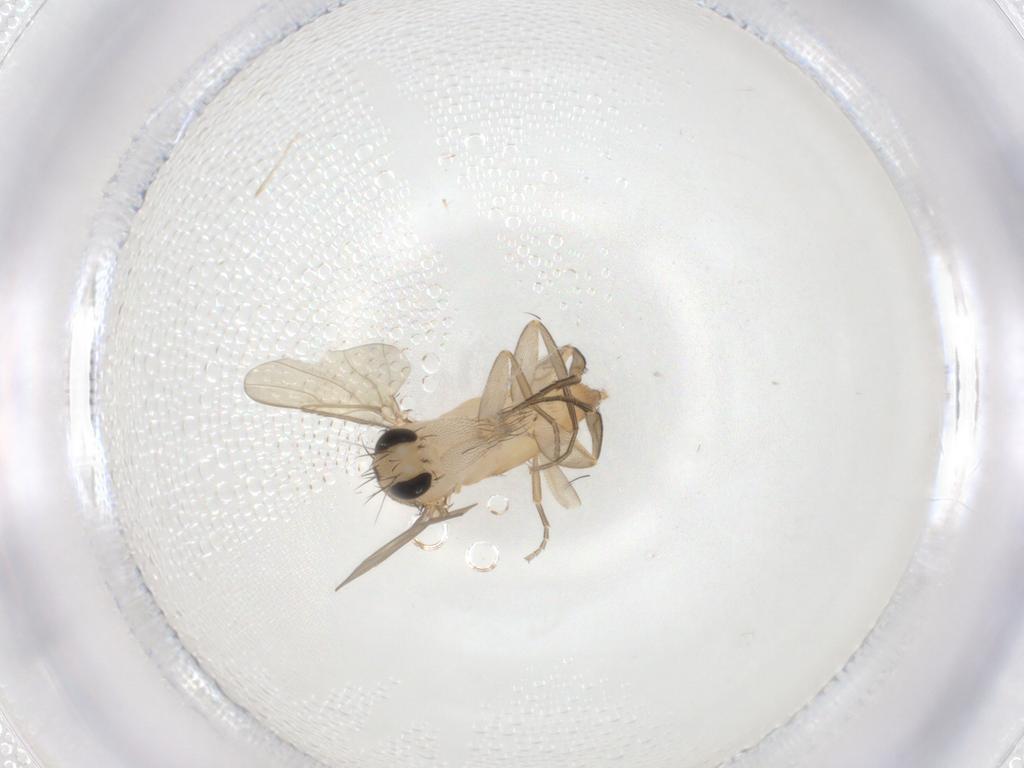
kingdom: Animalia
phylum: Arthropoda
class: Insecta
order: Diptera
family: Phoridae
